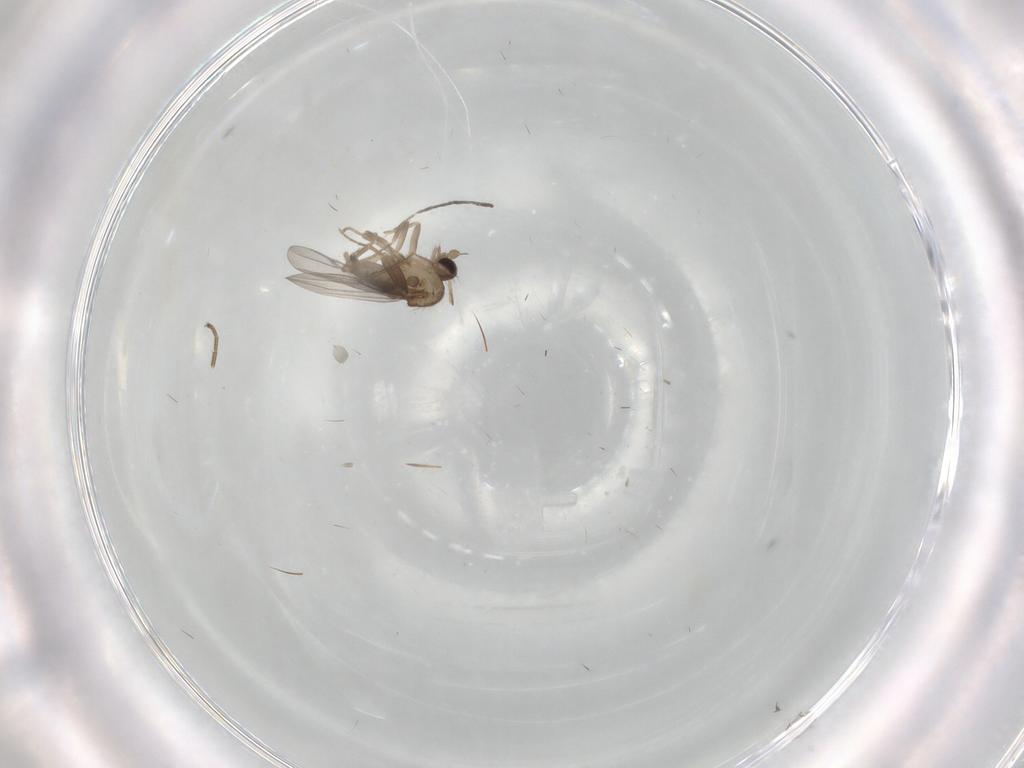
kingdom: Animalia
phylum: Arthropoda
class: Insecta
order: Diptera
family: Cecidomyiidae
